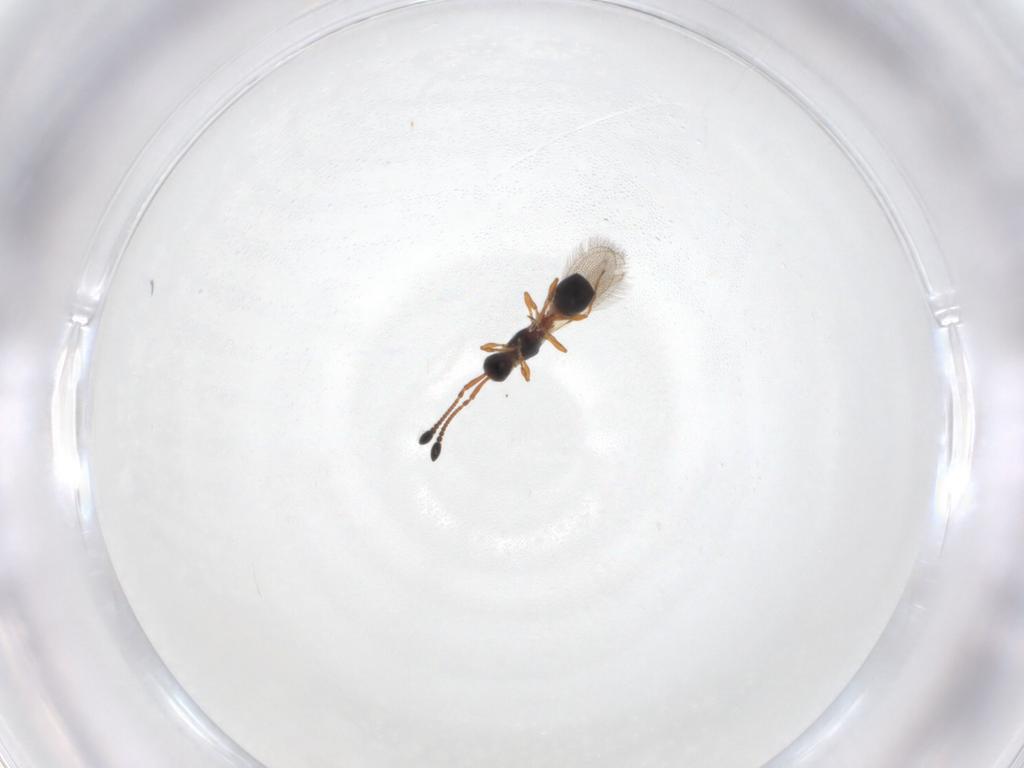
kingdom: Animalia
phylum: Arthropoda
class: Insecta
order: Hymenoptera
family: Diapriidae
